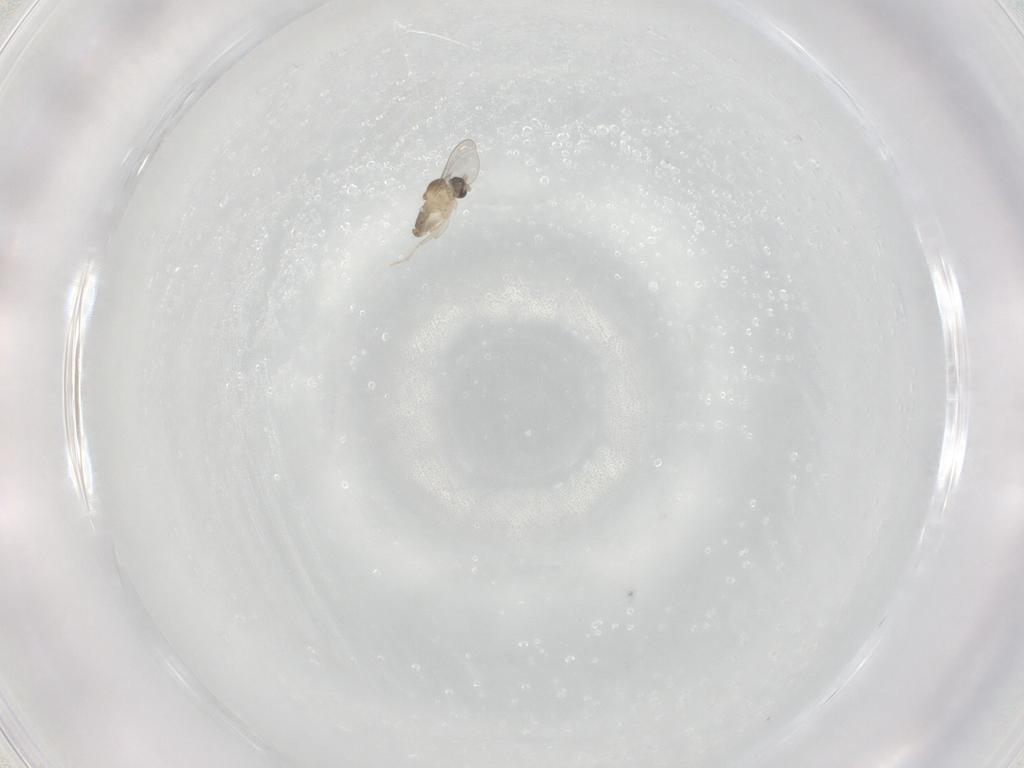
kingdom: Animalia
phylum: Arthropoda
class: Insecta
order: Diptera
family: Cecidomyiidae
